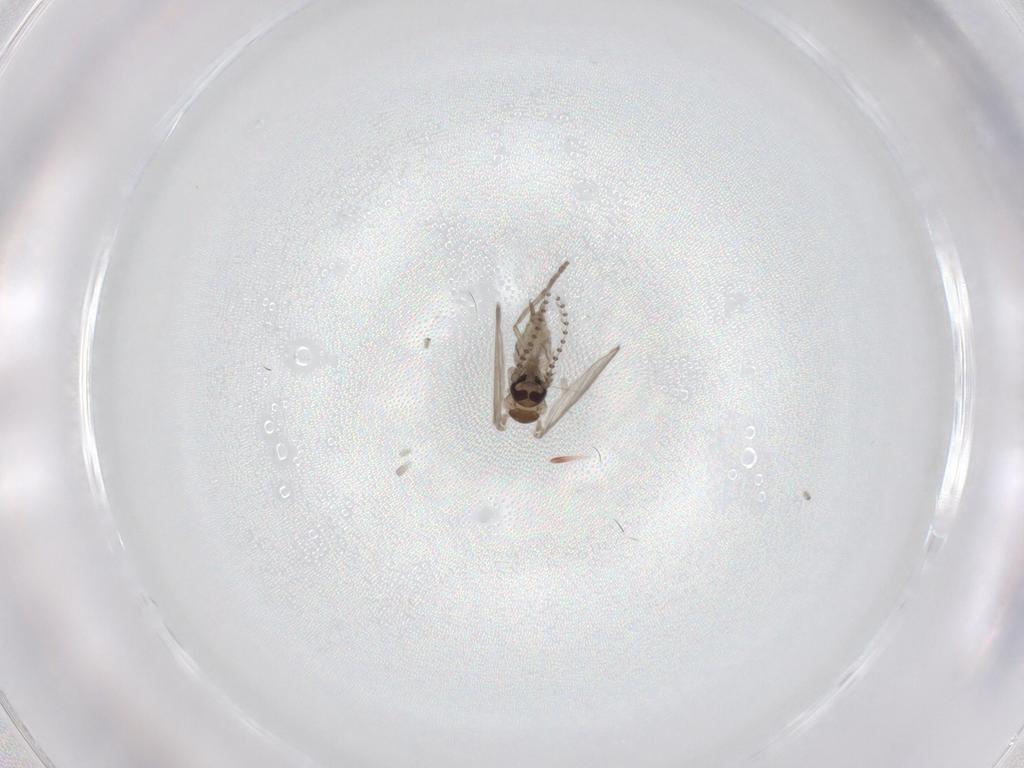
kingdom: Animalia
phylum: Arthropoda
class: Insecta
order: Diptera
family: Psychodidae
